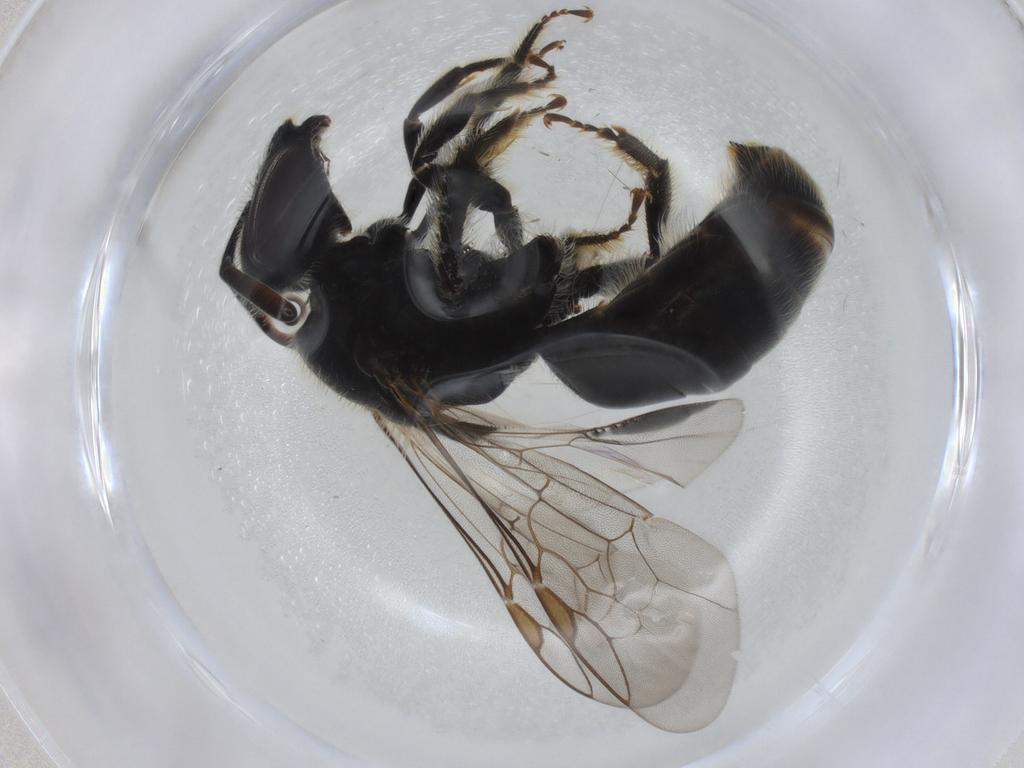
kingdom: Animalia
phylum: Arthropoda
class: Insecta
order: Hymenoptera
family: Halictidae
